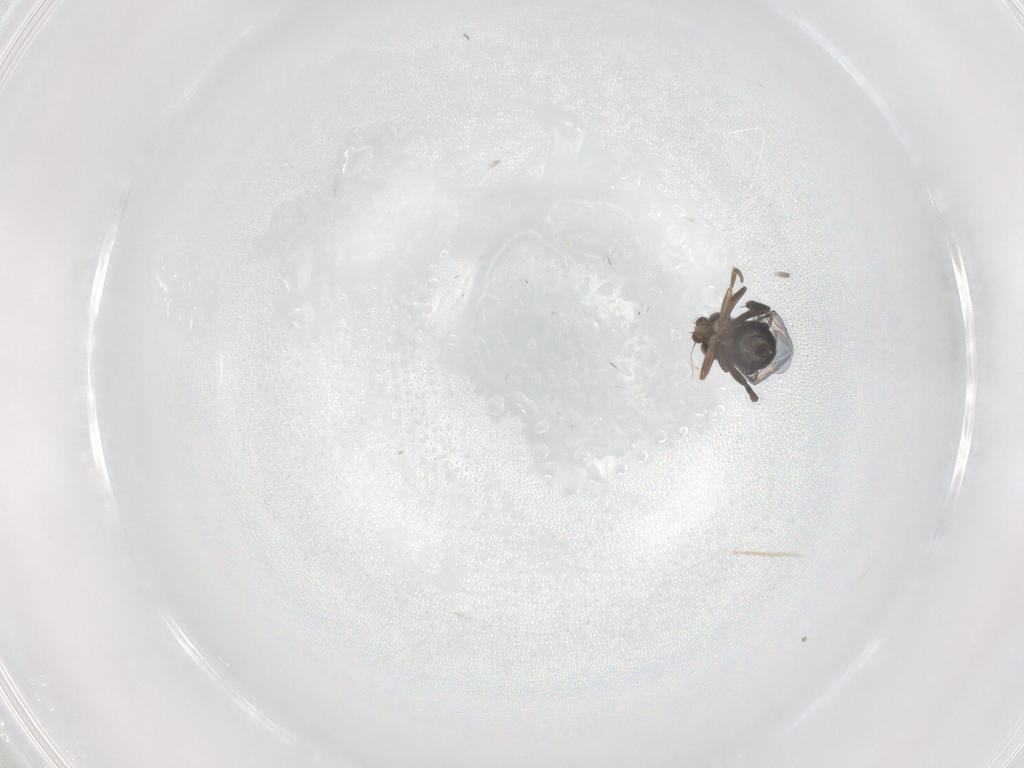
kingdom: Animalia
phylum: Arthropoda
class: Insecta
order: Diptera
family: Phoridae
